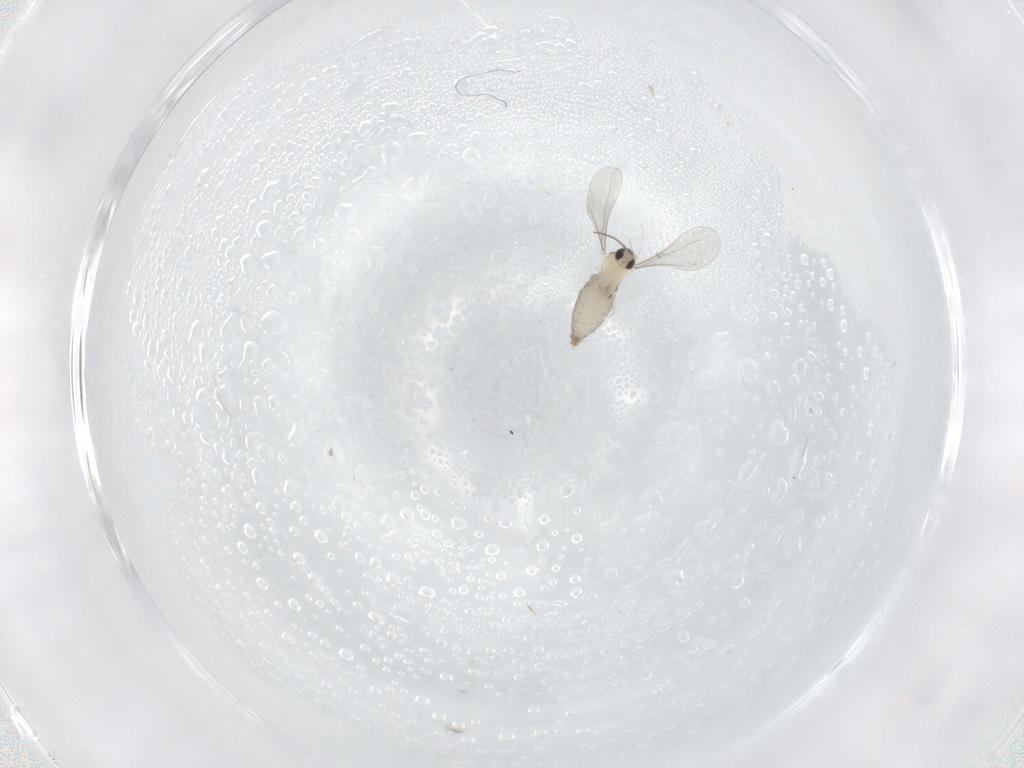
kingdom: Animalia
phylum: Arthropoda
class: Insecta
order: Diptera
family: Cecidomyiidae
